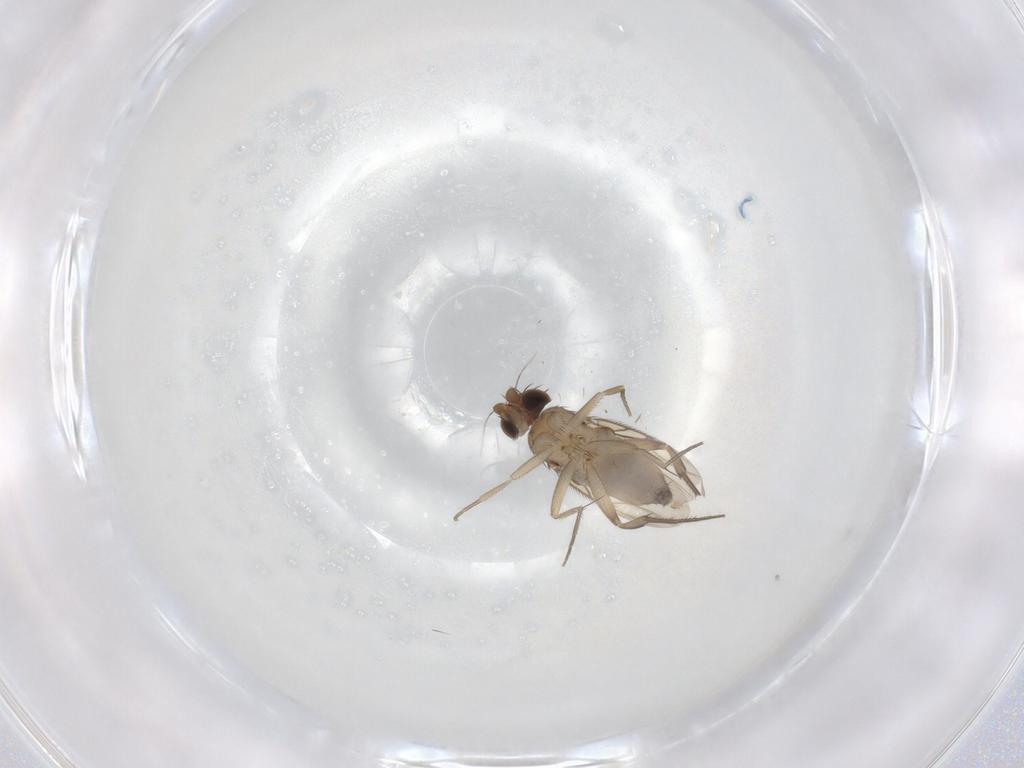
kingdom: Animalia
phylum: Arthropoda
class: Insecta
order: Diptera
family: Phoridae
